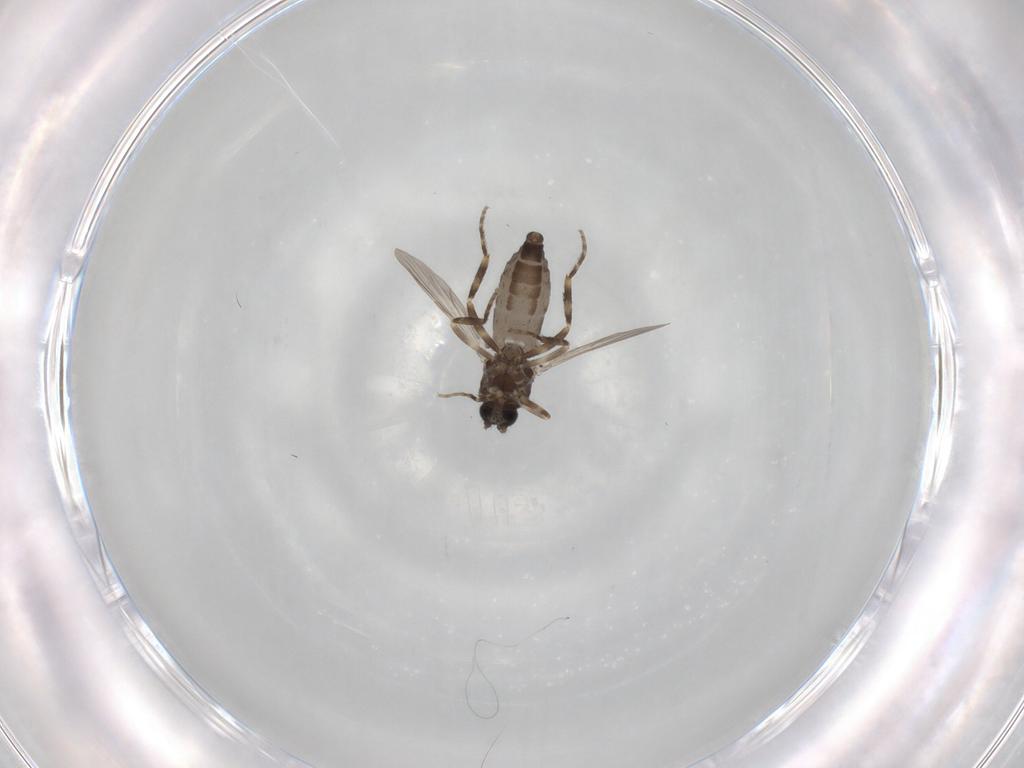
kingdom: Animalia
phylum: Arthropoda
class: Insecta
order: Diptera
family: Ceratopogonidae
